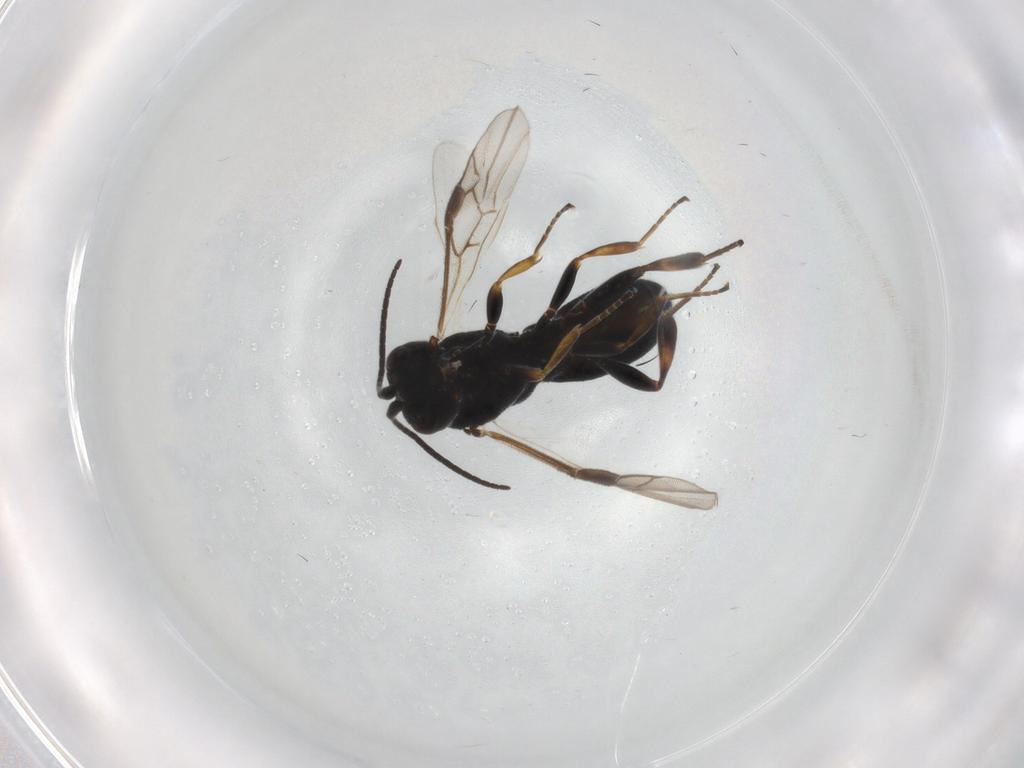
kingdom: Animalia
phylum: Arthropoda
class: Insecta
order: Hymenoptera
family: Braconidae
